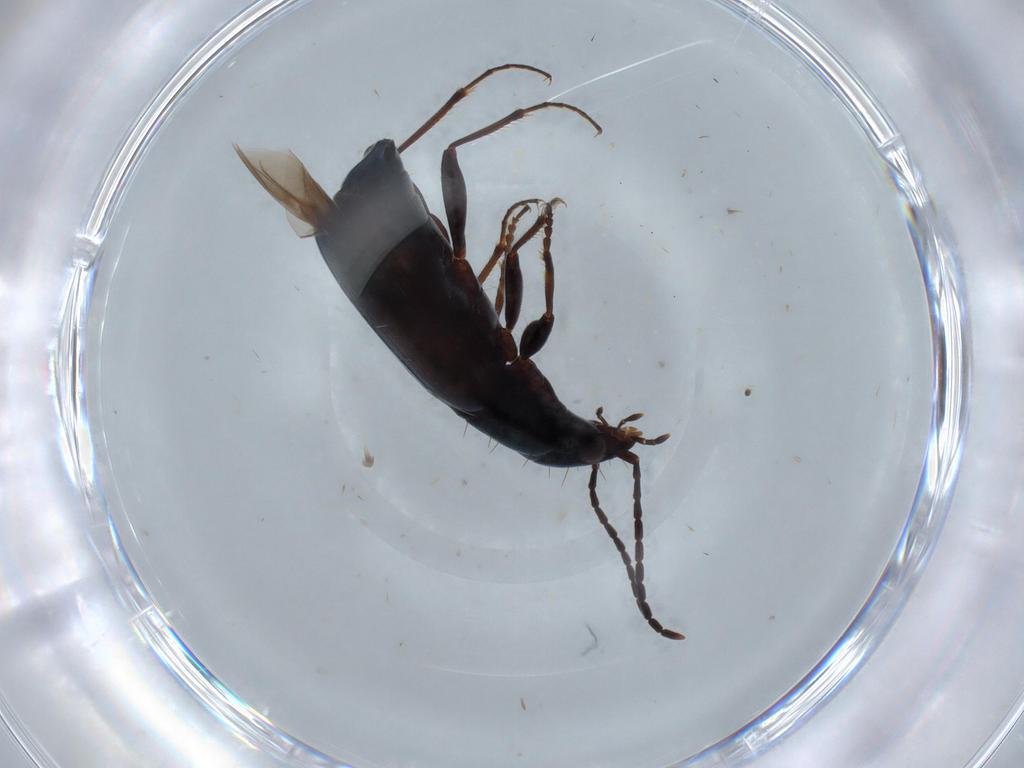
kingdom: Animalia
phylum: Arthropoda
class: Insecta
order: Coleoptera
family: Carabidae
